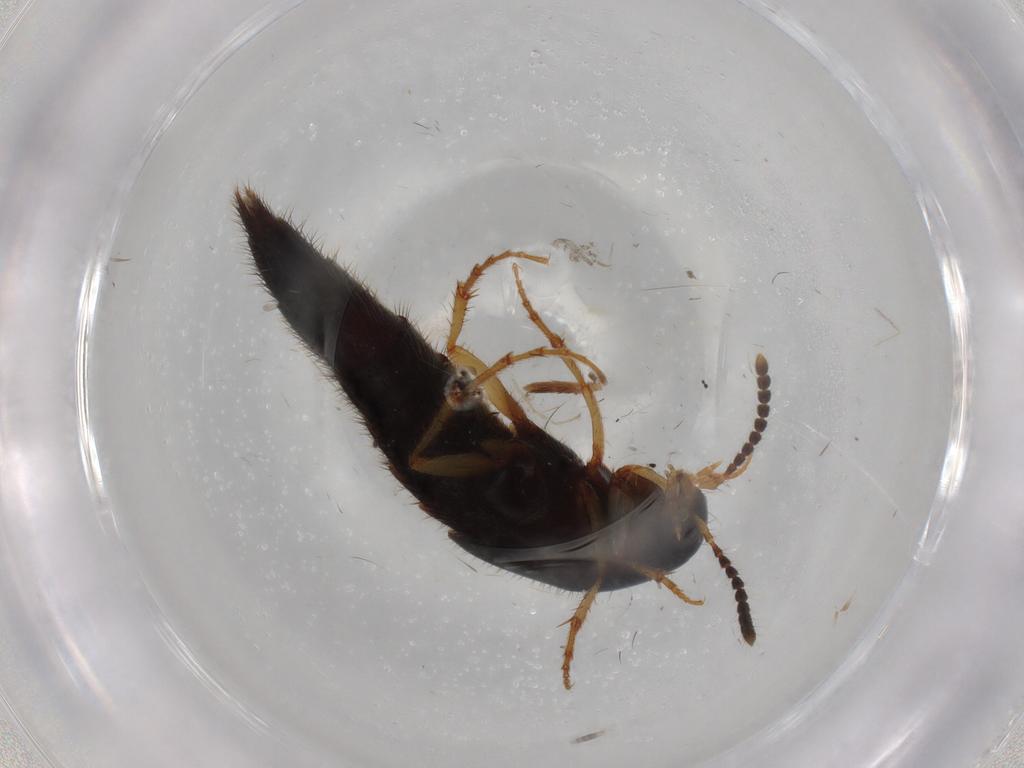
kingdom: Animalia
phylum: Arthropoda
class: Insecta
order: Coleoptera
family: Staphylinidae
